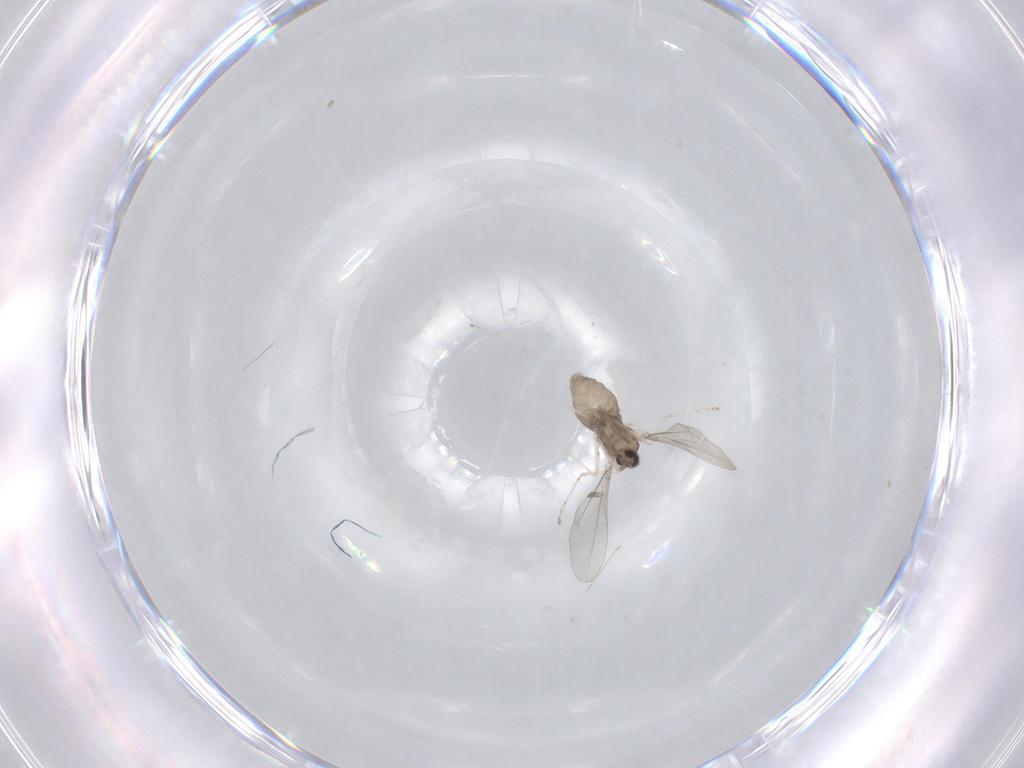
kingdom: Animalia
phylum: Arthropoda
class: Insecta
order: Diptera
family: Cecidomyiidae
